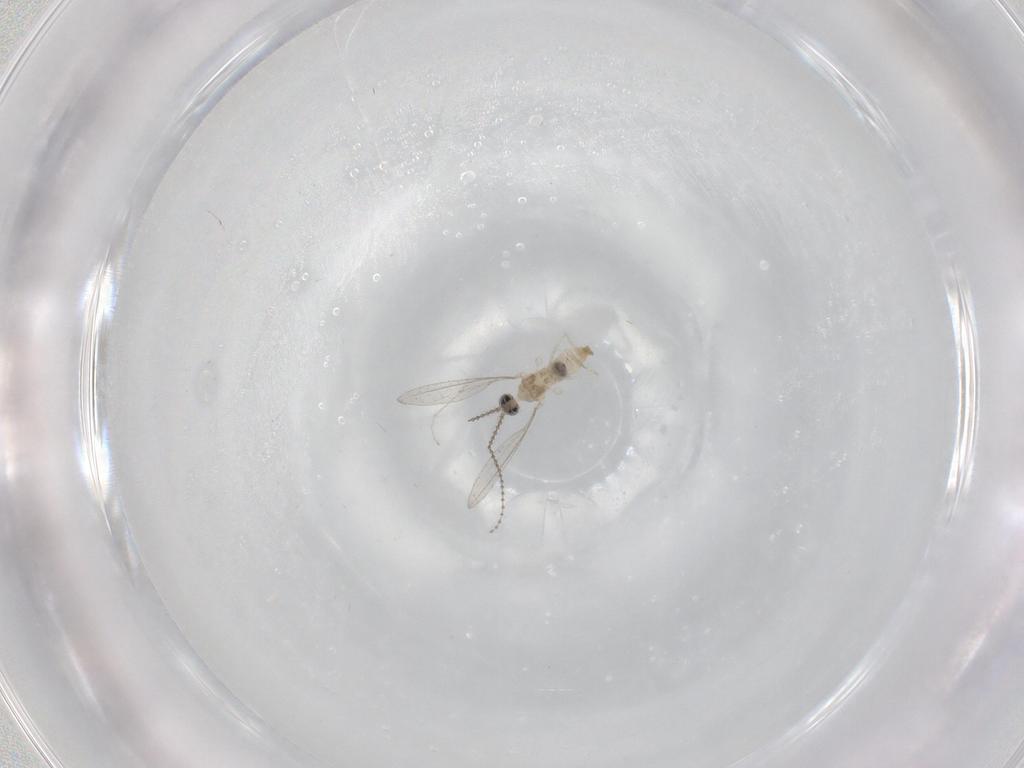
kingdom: Animalia
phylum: Arthropoda
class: Insecta
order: Diptera
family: Cecidomyiidae
